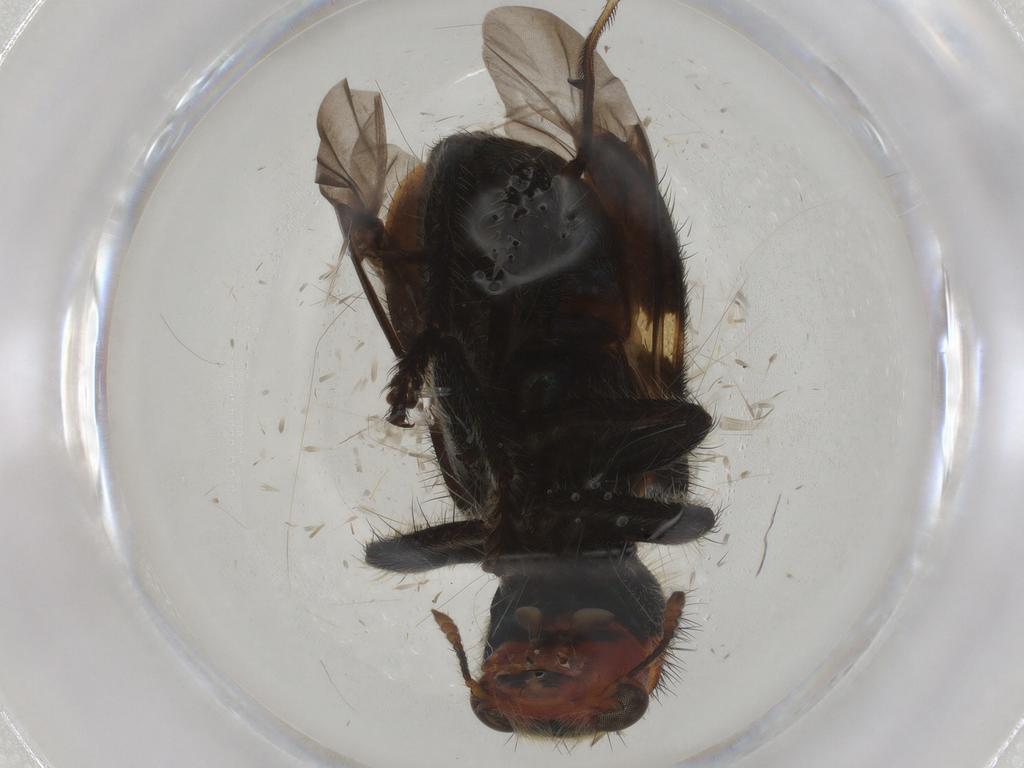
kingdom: Animalia
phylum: Arthropoda
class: Insecta
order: Diptera
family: Dolichopodidae
